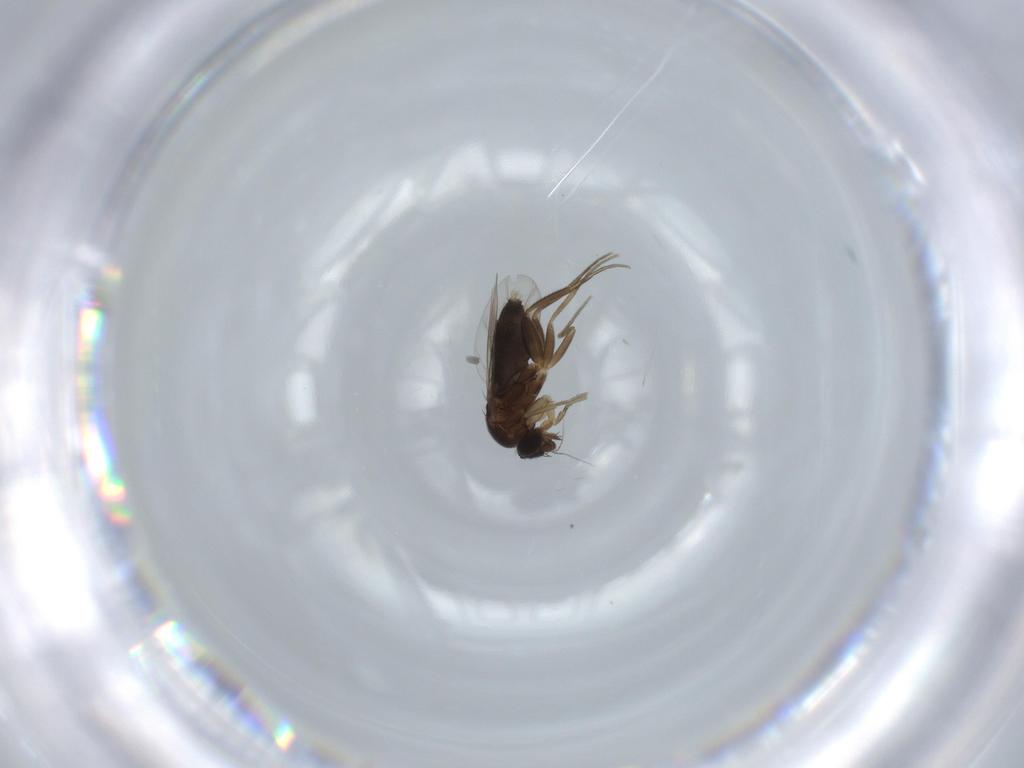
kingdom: Animalia
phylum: Arthropoda
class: Insecta
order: Diptera
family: Phoridae
